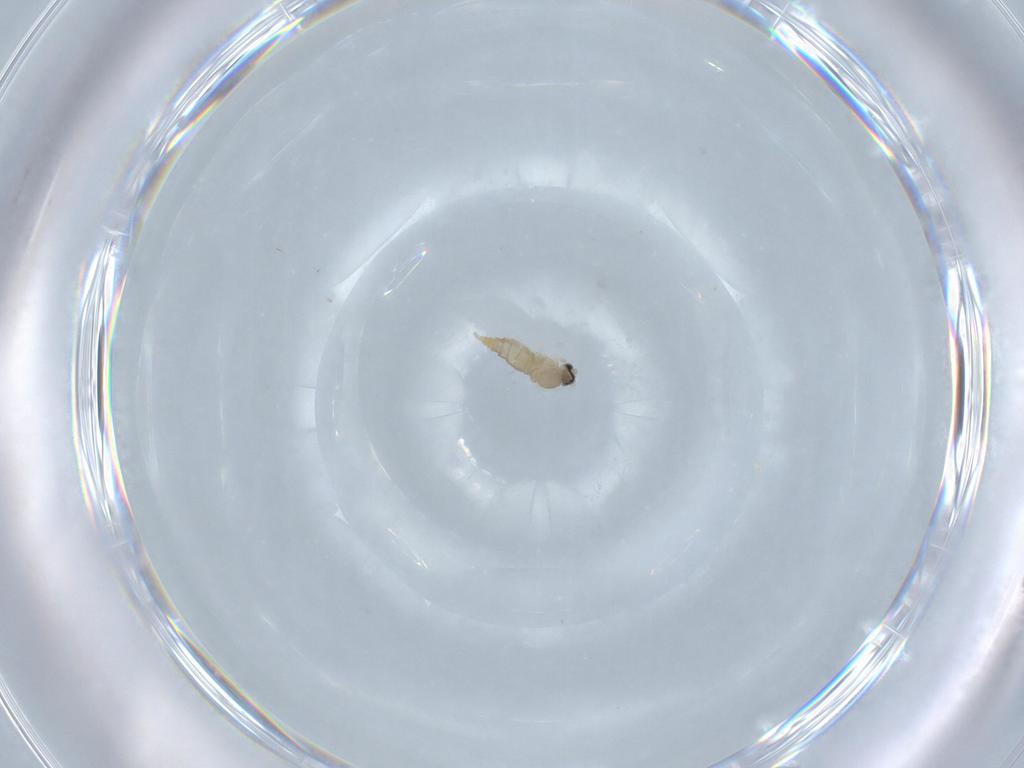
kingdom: Animalia
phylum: Arthropoda
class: Insecta
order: Diptera
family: Cecidomyiidae
